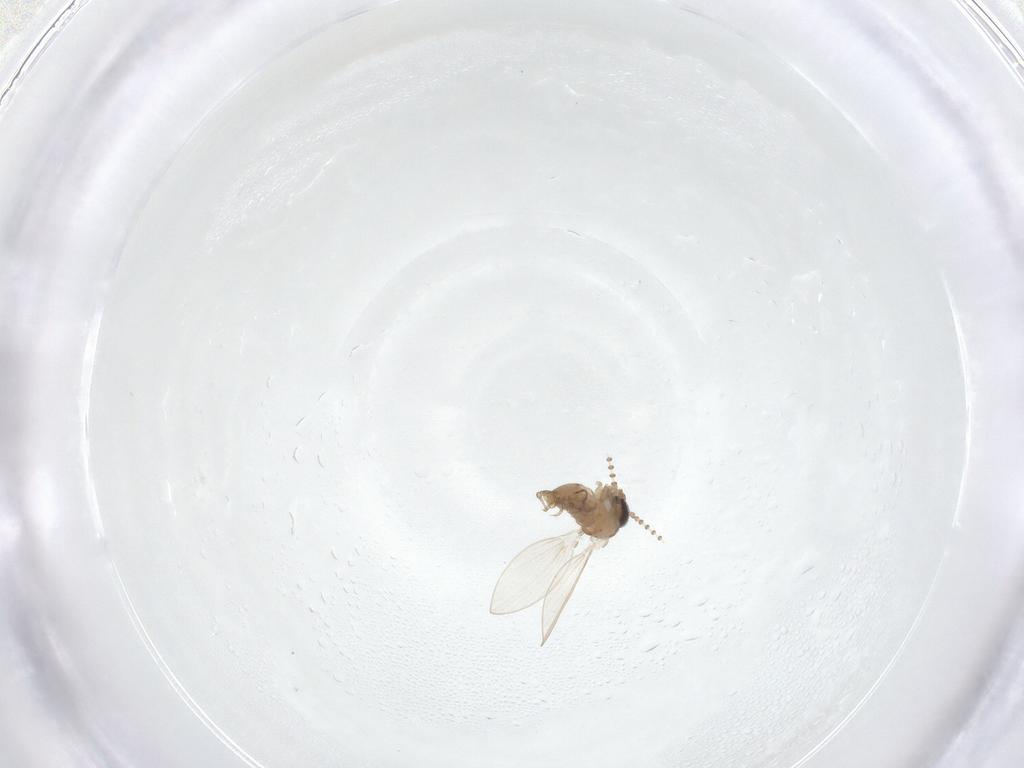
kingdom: Animalia
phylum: Arthropoda
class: Insecta
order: Diptera
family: Psychodidae
